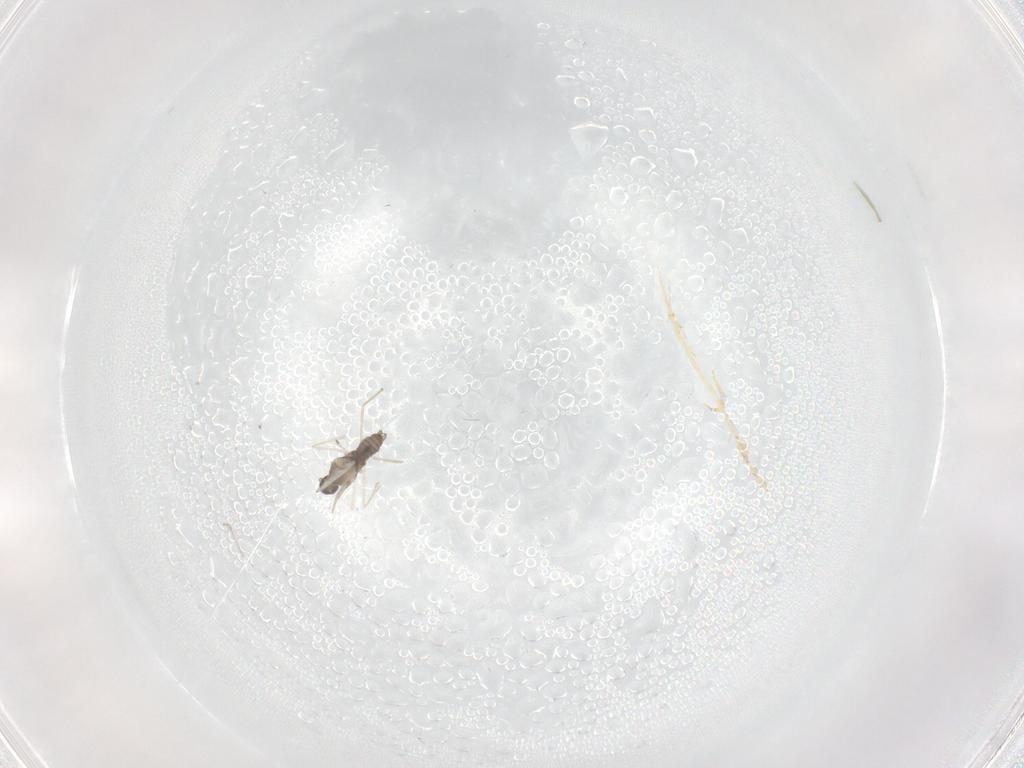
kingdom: Animalia
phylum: Arthropoda
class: Insecta
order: Diptera
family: Cecidomyiidae
